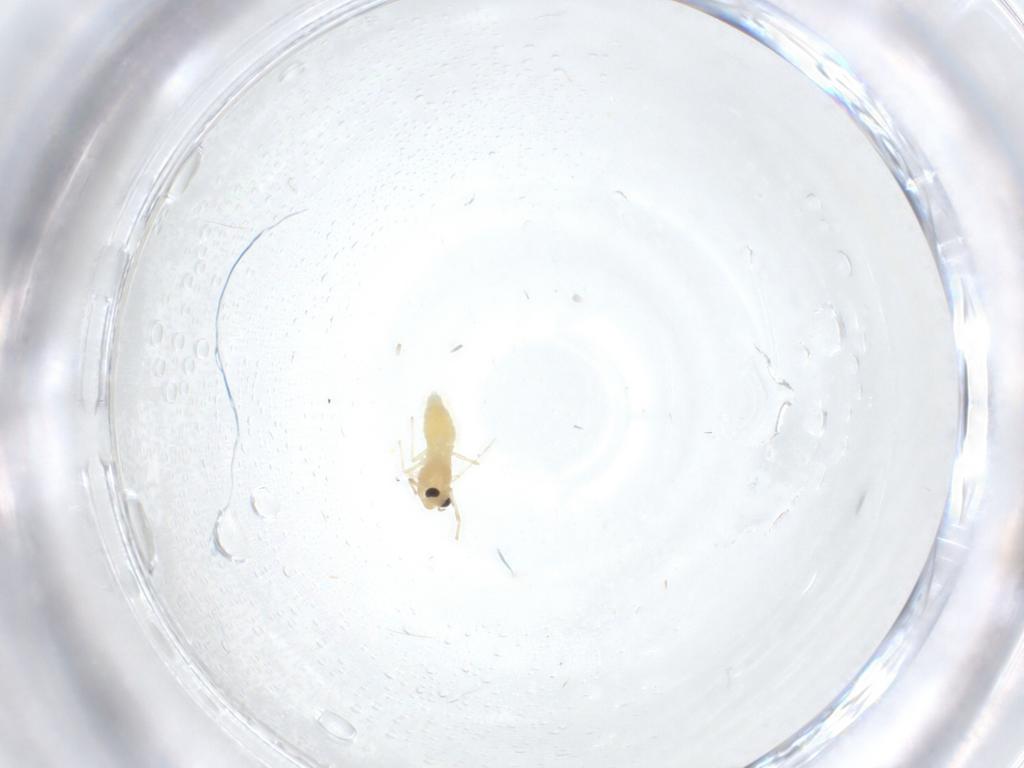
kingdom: Animalia
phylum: Arthropoda
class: Insecta
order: Diptera
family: Chironomidae
